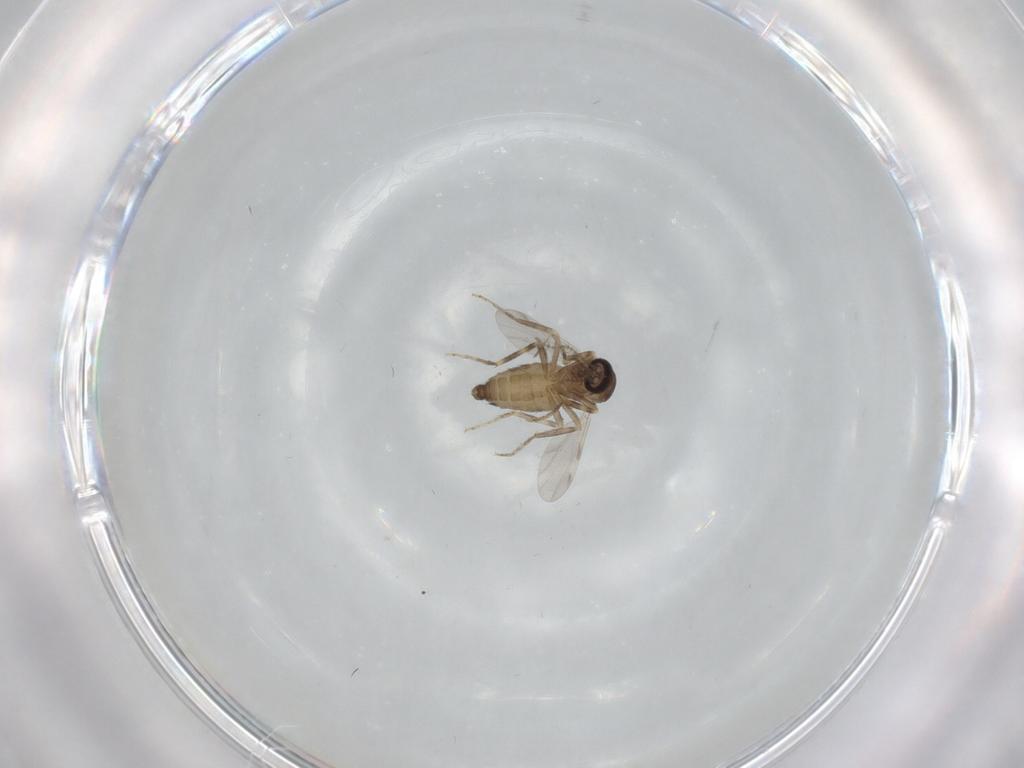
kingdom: Animalia
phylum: Arthropoda
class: Insecta
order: Diptera
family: Ceratopogonidae
